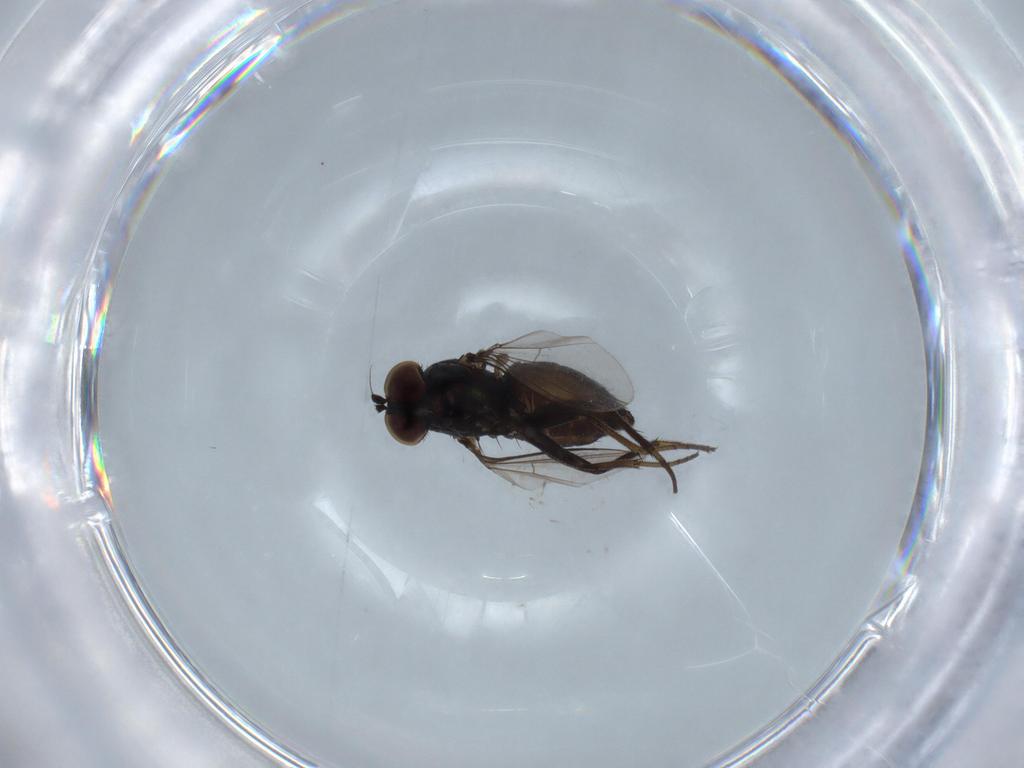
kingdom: Animalia
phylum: Arthropoda
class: Insecta
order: Diptera
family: Dolichopodidae
